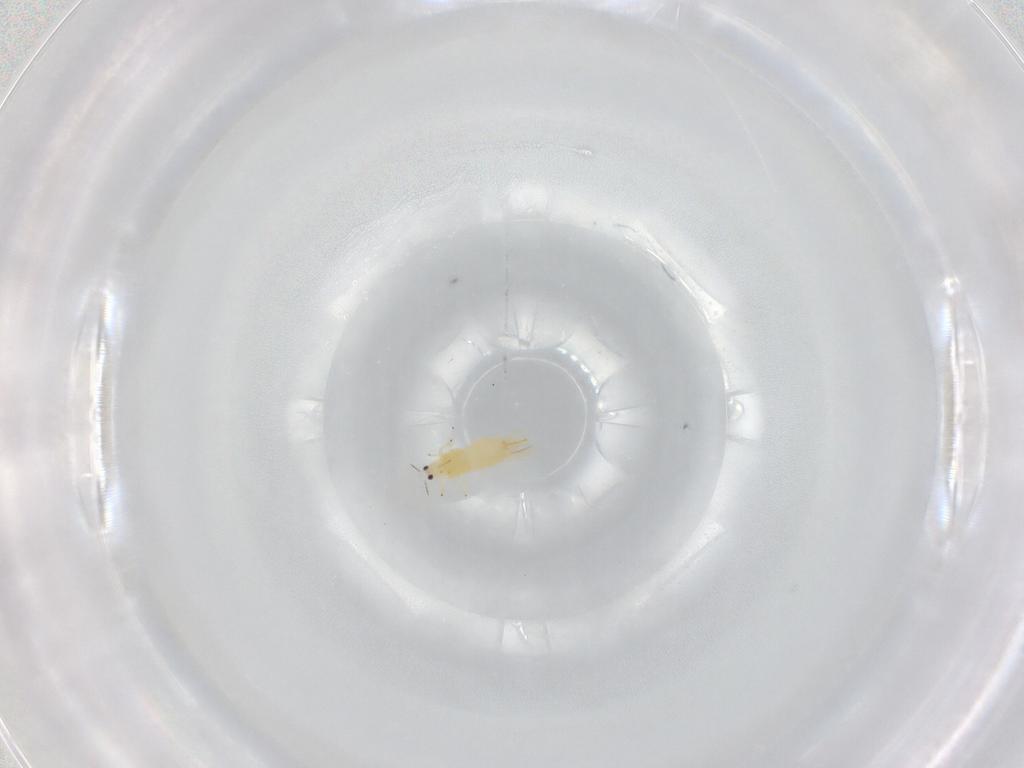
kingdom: Animalia
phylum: Arthropoda
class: Insecta
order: Thysanoptera
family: Thripidae
